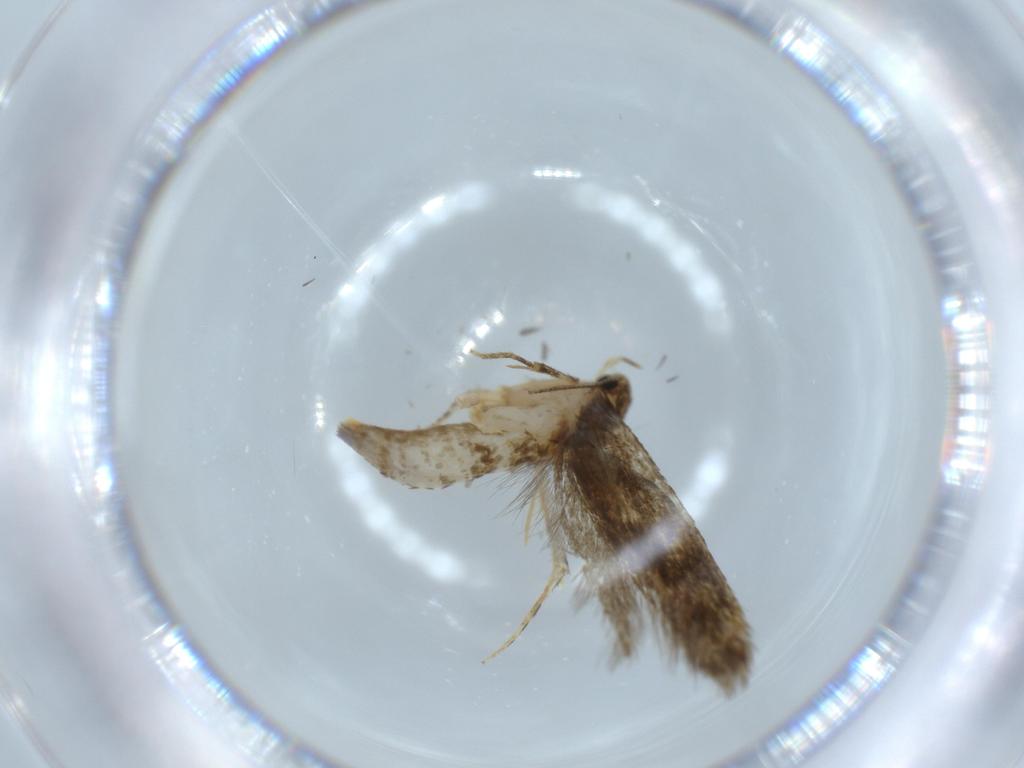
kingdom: Animalia
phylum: Arthropoda
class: Insecta
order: Lepidoptera
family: Tineidae
